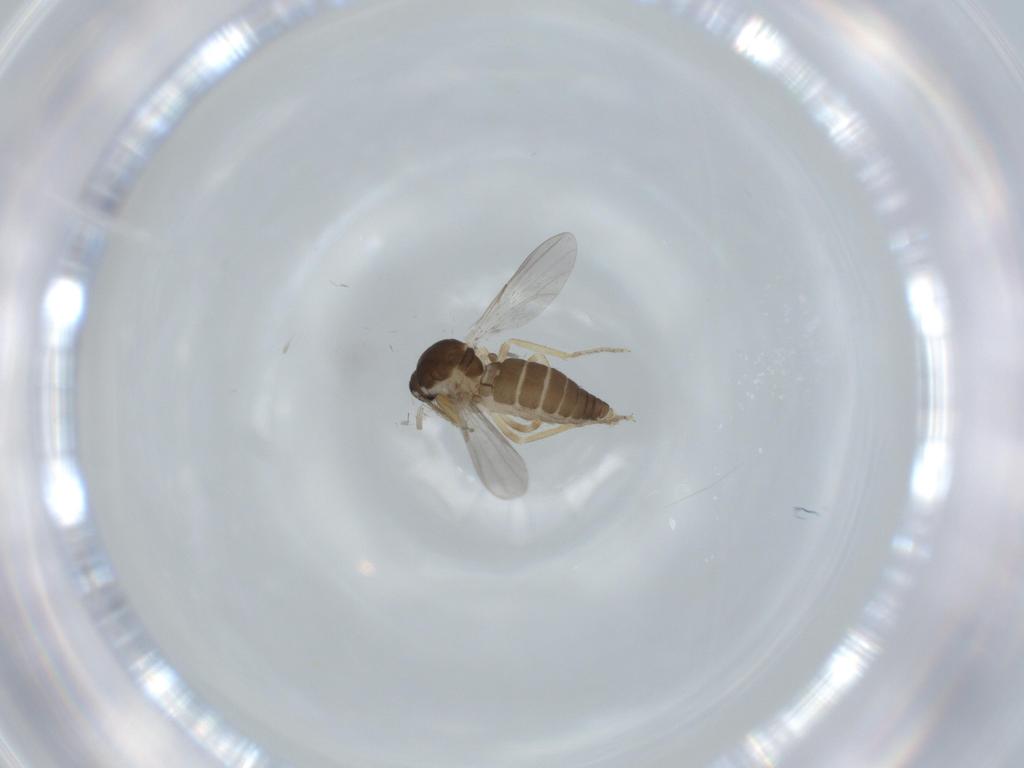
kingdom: Animalia
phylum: Arthropoda
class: Insecta
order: Diptera
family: Ceratopogonidae
